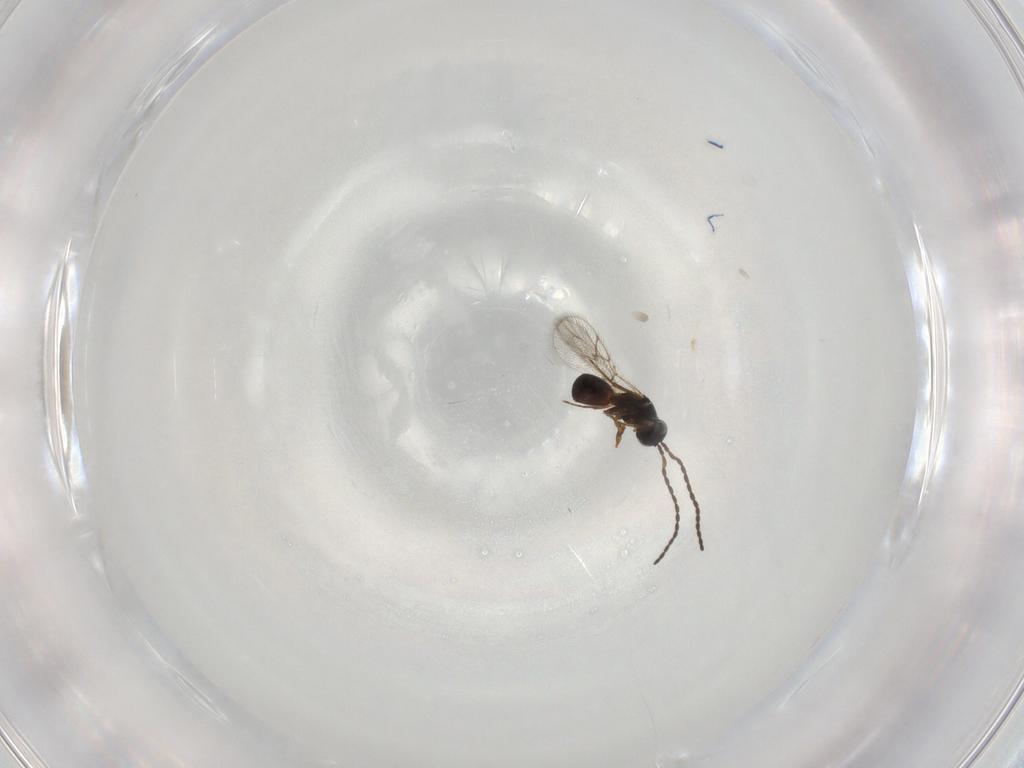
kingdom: Animalia
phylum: Arthropoda
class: Insecta
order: Hymenoptera
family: Figitidae
